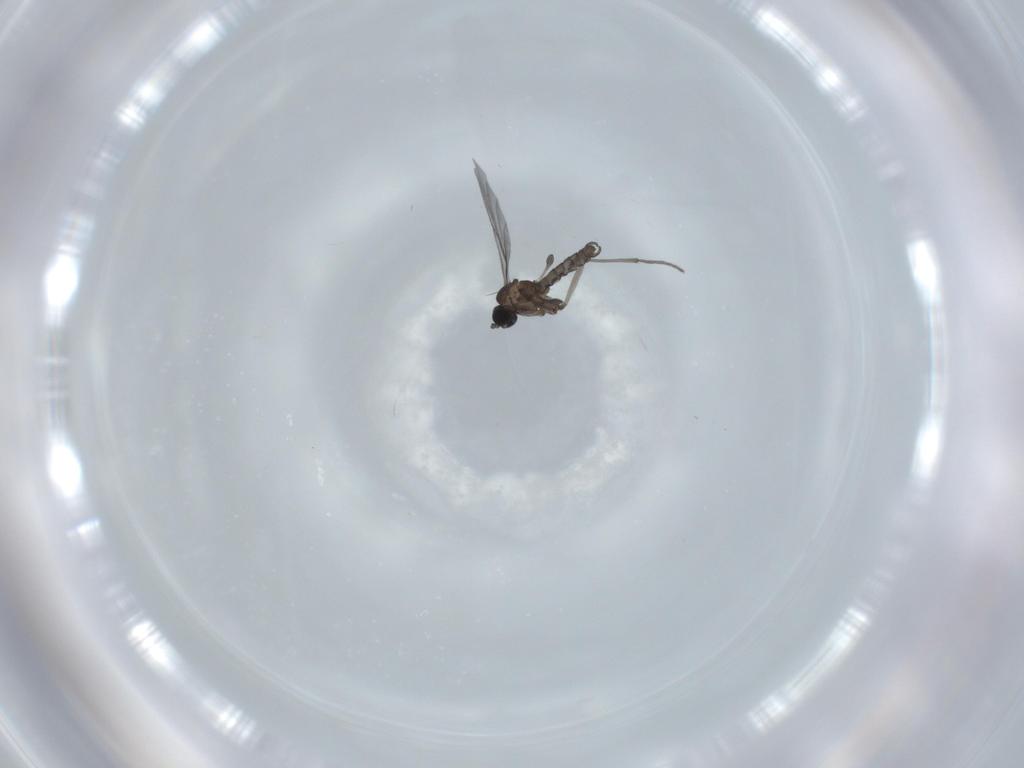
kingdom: Animalia
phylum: Arthropoda
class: Insecta
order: Diptera
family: Sciaridae
